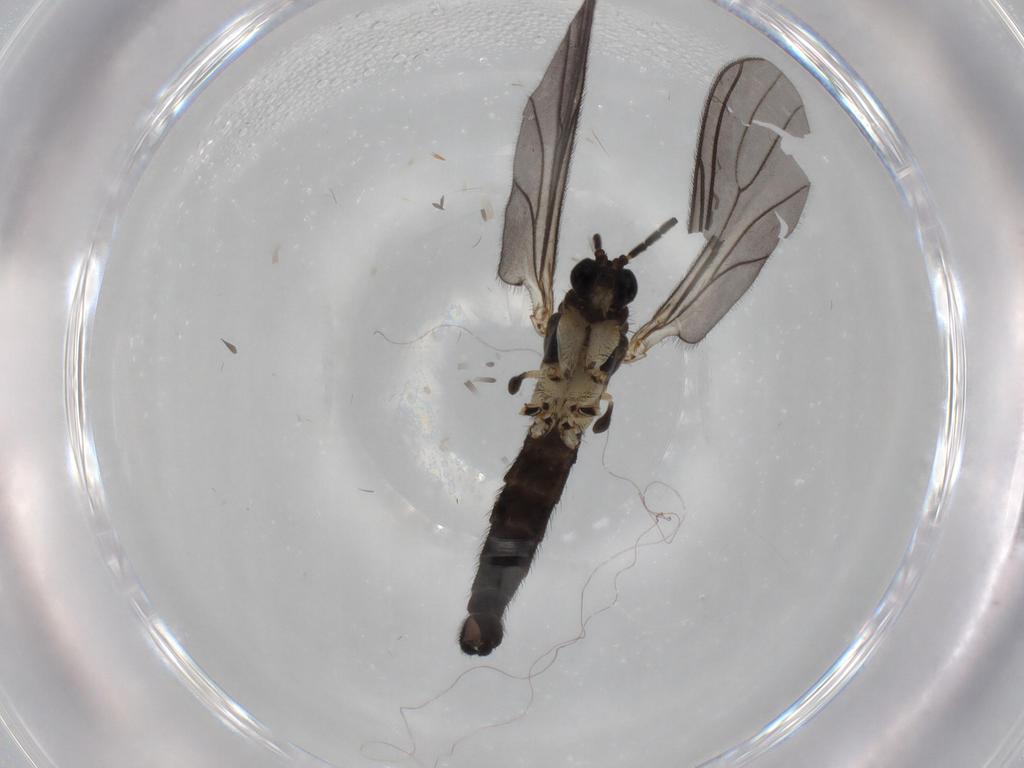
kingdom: Animalia
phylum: Arthropoda
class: Insecta
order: Diptera
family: Sciaridae
